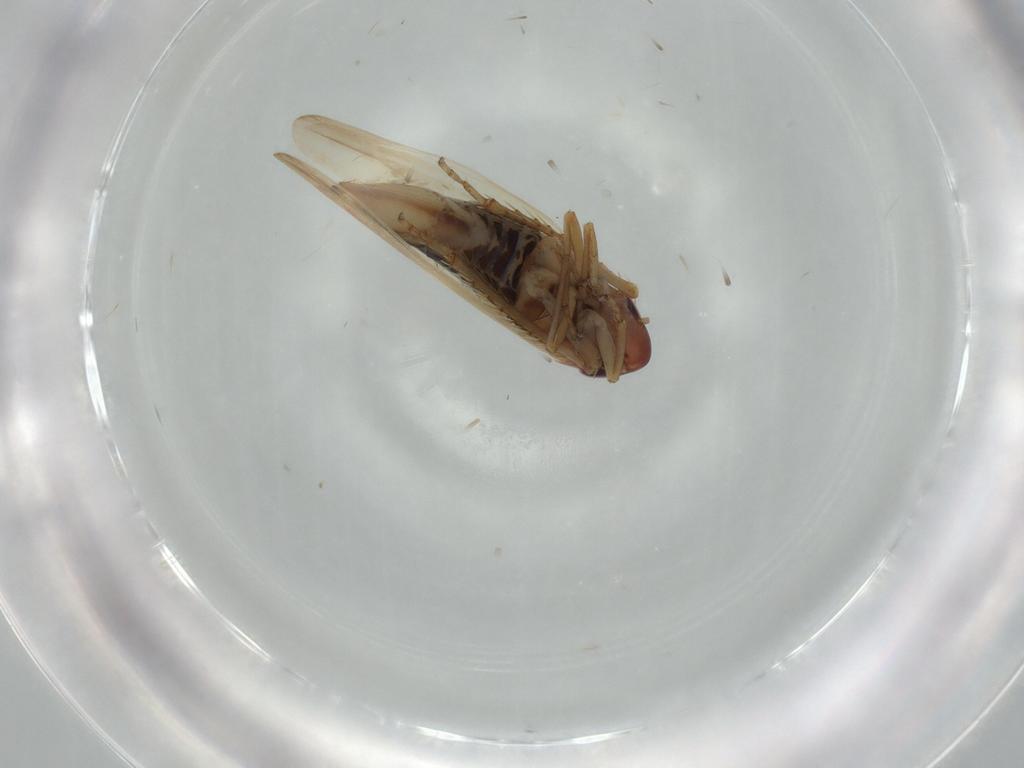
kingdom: Animalia
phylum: Arthropoda
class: Insecta
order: Hemiptera
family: Cicadellidae
